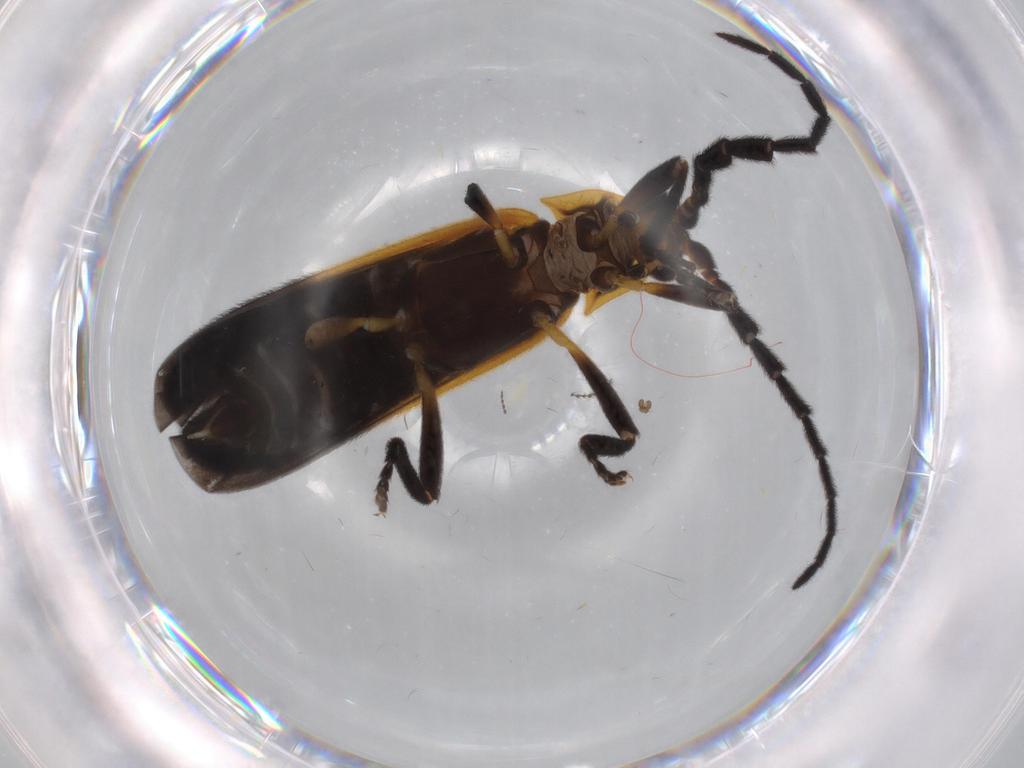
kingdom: Animalia
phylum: Arthropoda
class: Insecta
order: Coleoptera
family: Lycidae
